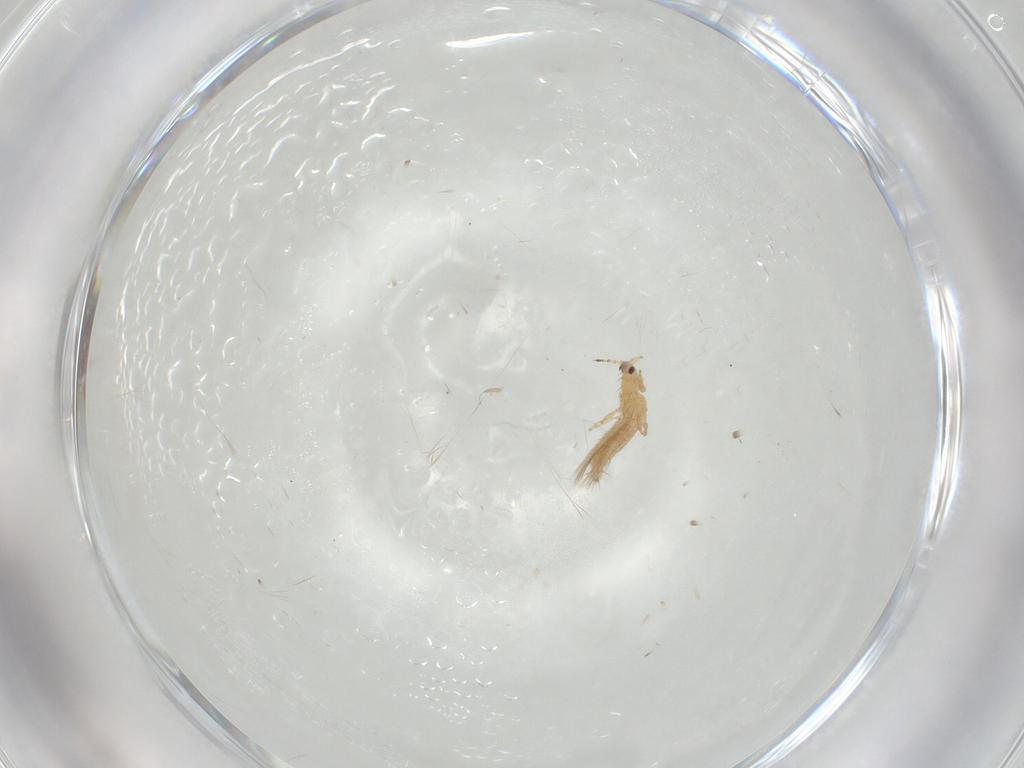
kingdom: Animalia
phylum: Arthropoda
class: Insecta
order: Thysanoptera
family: Thripidae
